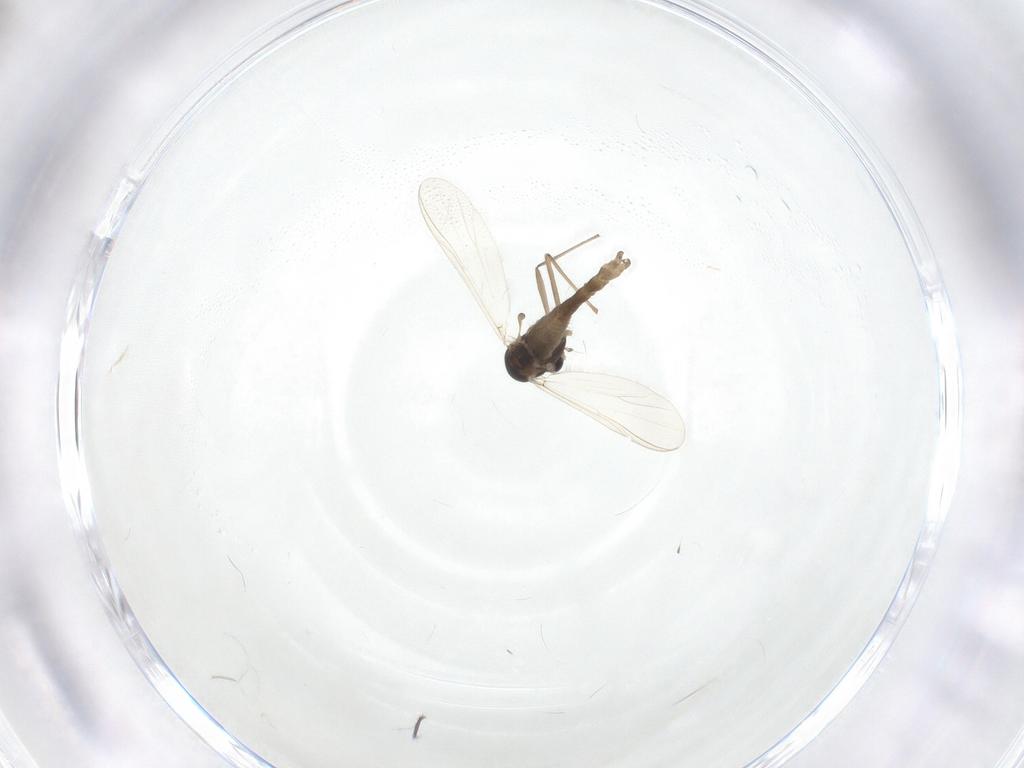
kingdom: Animalia
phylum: Arthropoda
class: Insecta
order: Diptera
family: Chironomidae
